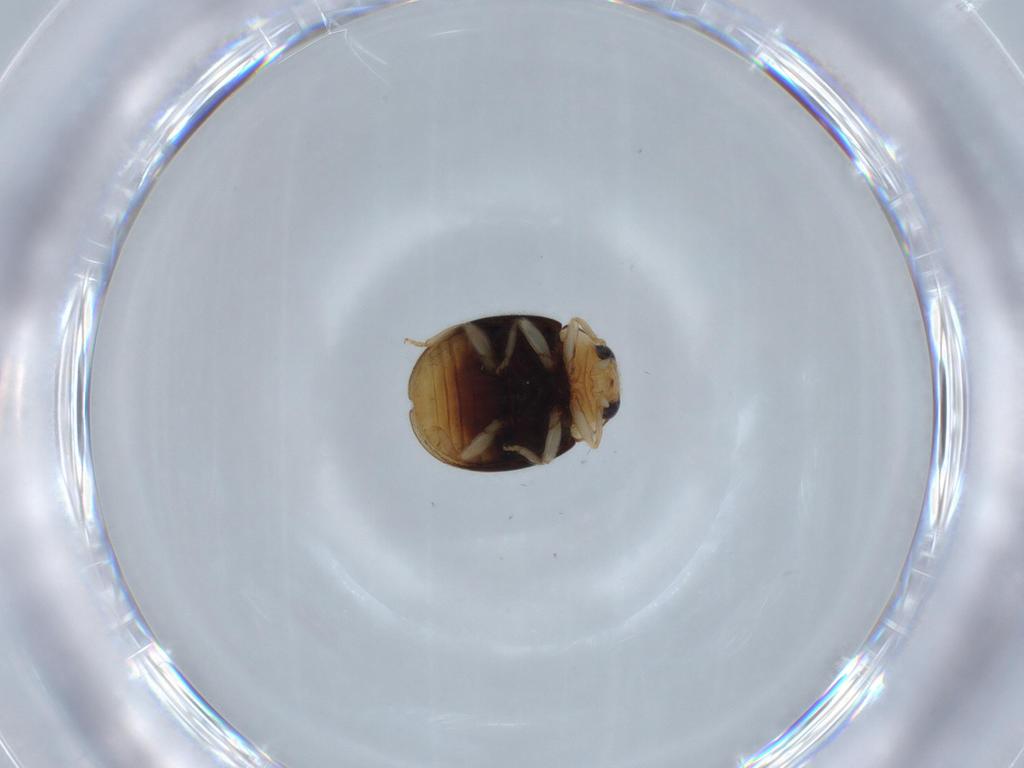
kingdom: Animalia
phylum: Arthropoda
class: Insecta
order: Coleoptera
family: Coccinellidae
